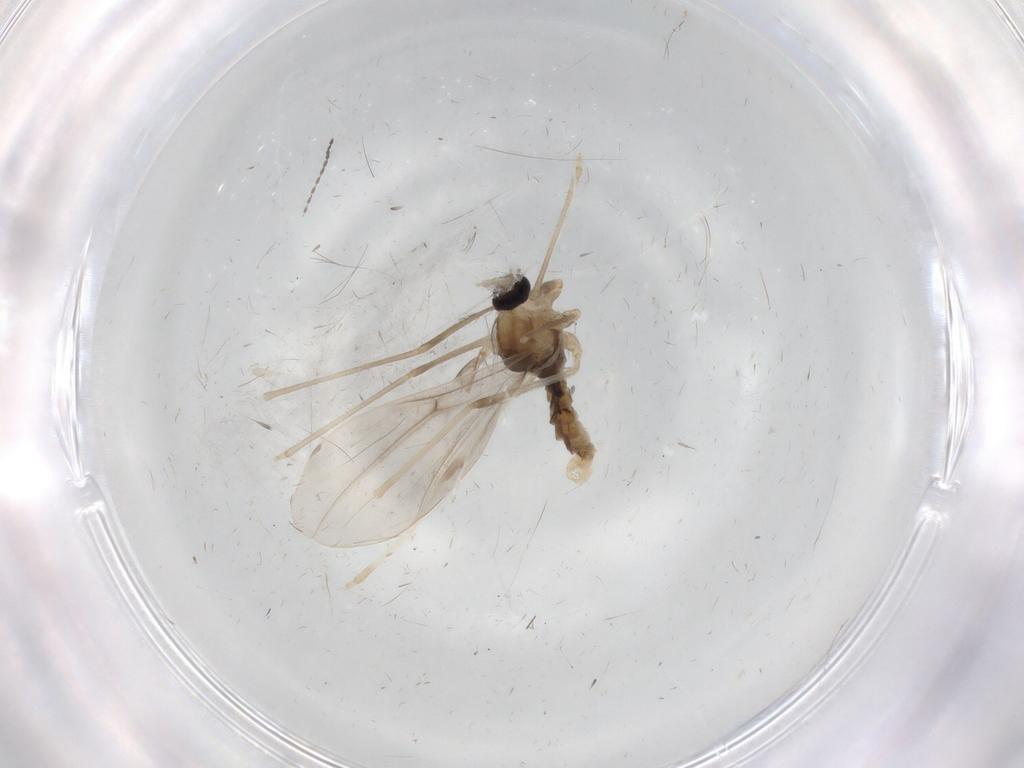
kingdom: Animalia
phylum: Arthropoda
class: Insecta
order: Diptera
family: Cecidomyiidae
